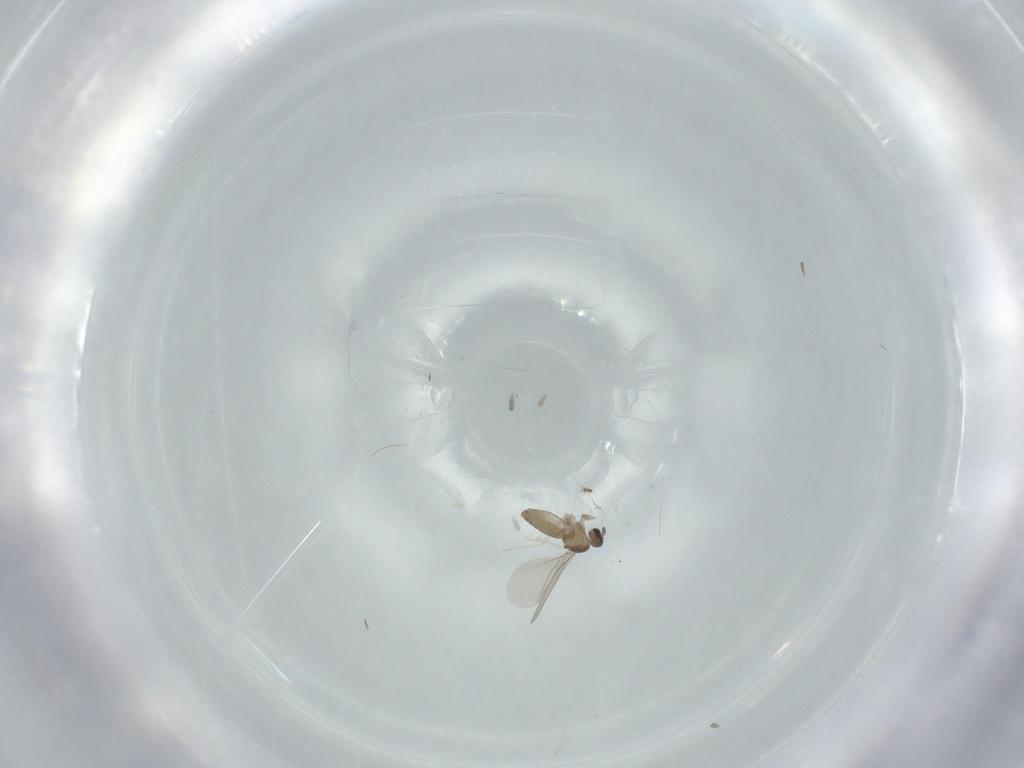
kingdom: Animalia
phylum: Arthropoda
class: Insecta
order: Diptera
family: Cecidomyiidae
